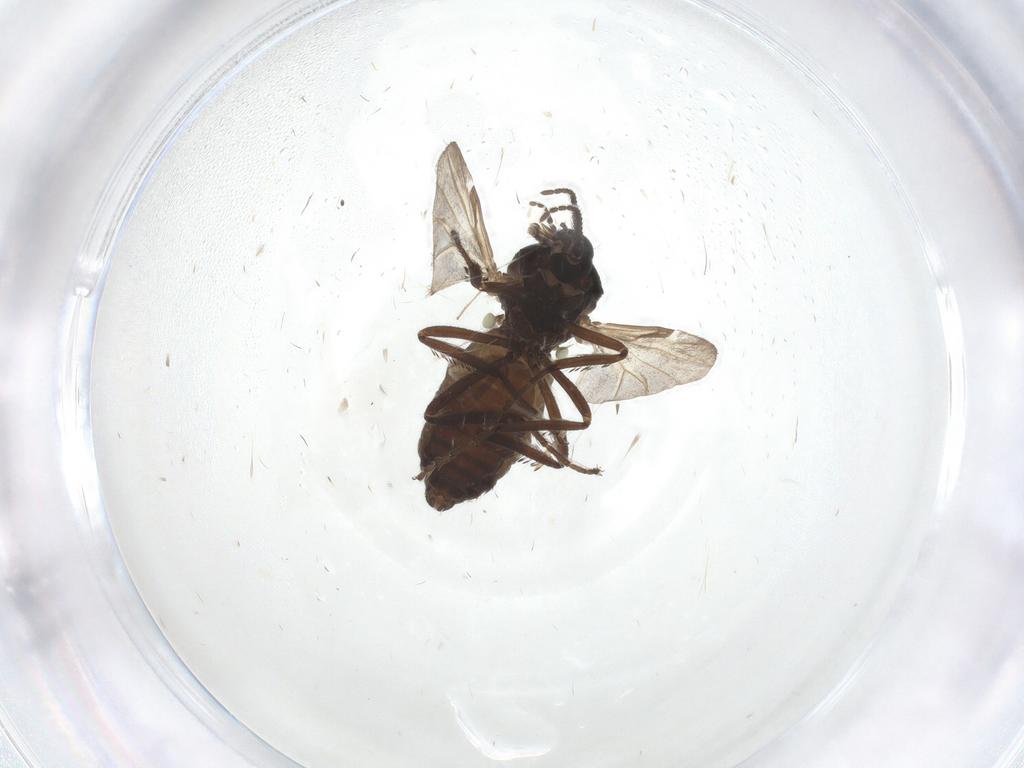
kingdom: Animalia
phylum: Arthropoda
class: Insecta
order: Diptera
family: Ceratopogonidae
